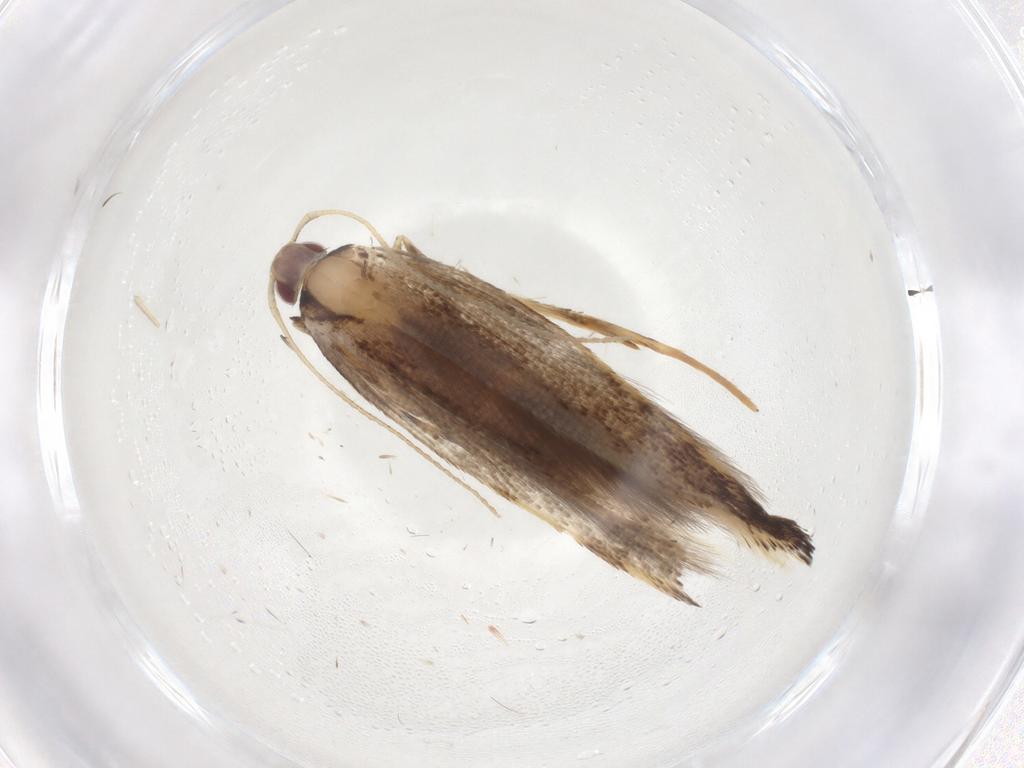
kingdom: Animalia
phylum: Arthropoda
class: Insecta
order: Lepidoptera
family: Cosmopterigidae
